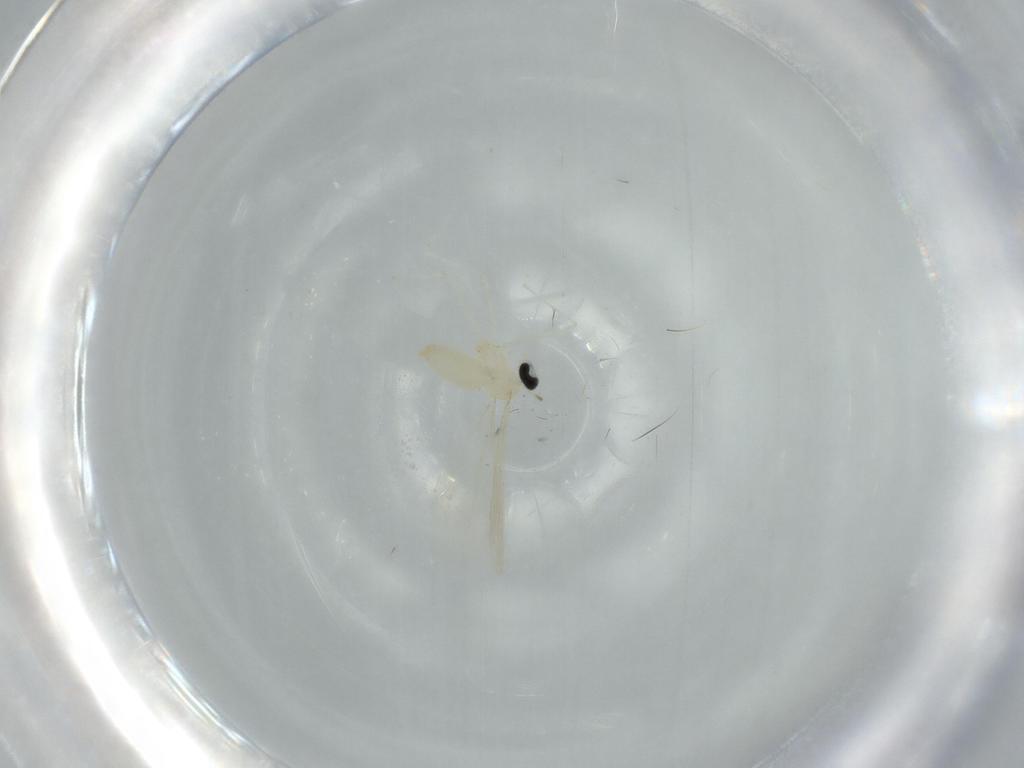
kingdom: Animalia
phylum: Arthropoda
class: Insecta
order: Diptera
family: Cecidomyiidae
